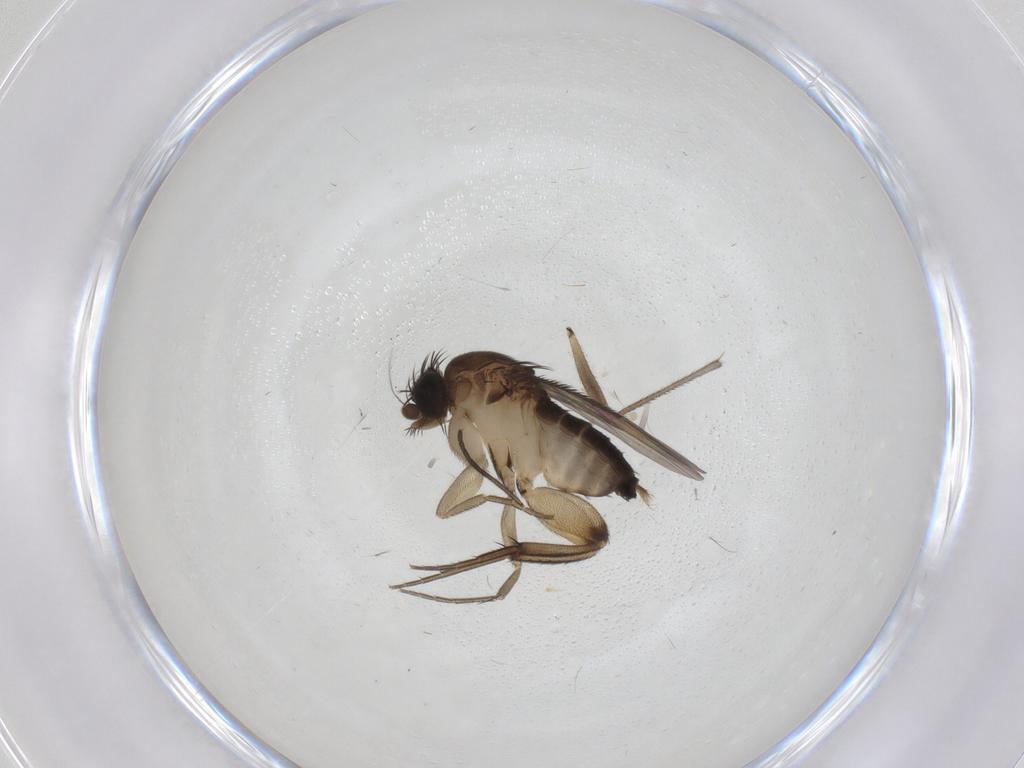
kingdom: Animalia
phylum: Arthropoda
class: Insecta
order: Diptera
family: Phoridae
